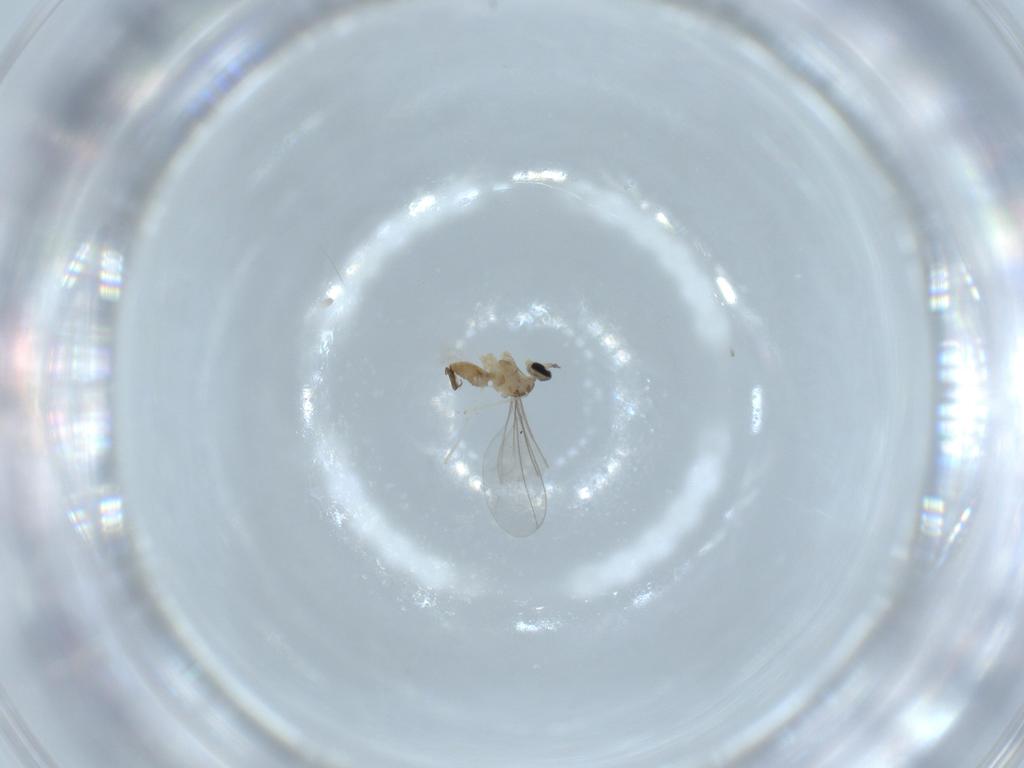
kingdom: Animalia
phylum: Arthropoda
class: Insecta
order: Diptera
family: Cecidomyiidae
